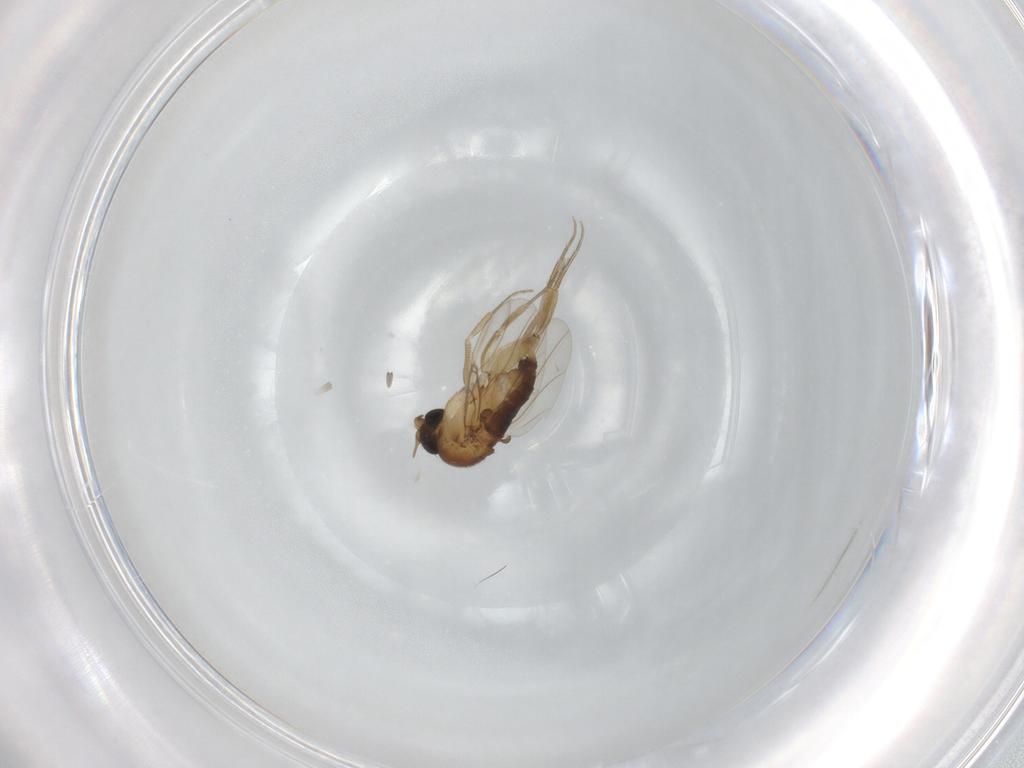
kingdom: Animalia
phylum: Arthropoda
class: Insecta
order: Diptera
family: Phoridae
